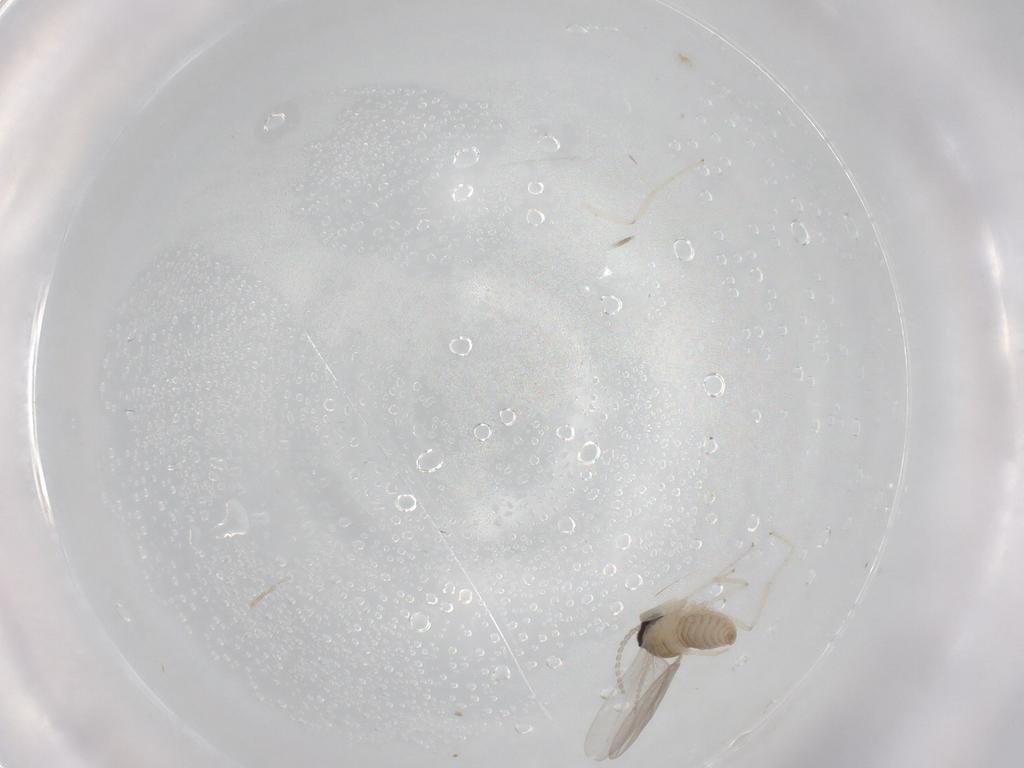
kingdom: Animalia
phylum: Arthropoda
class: Insecta
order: Diptera
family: Cecidomyiidae
